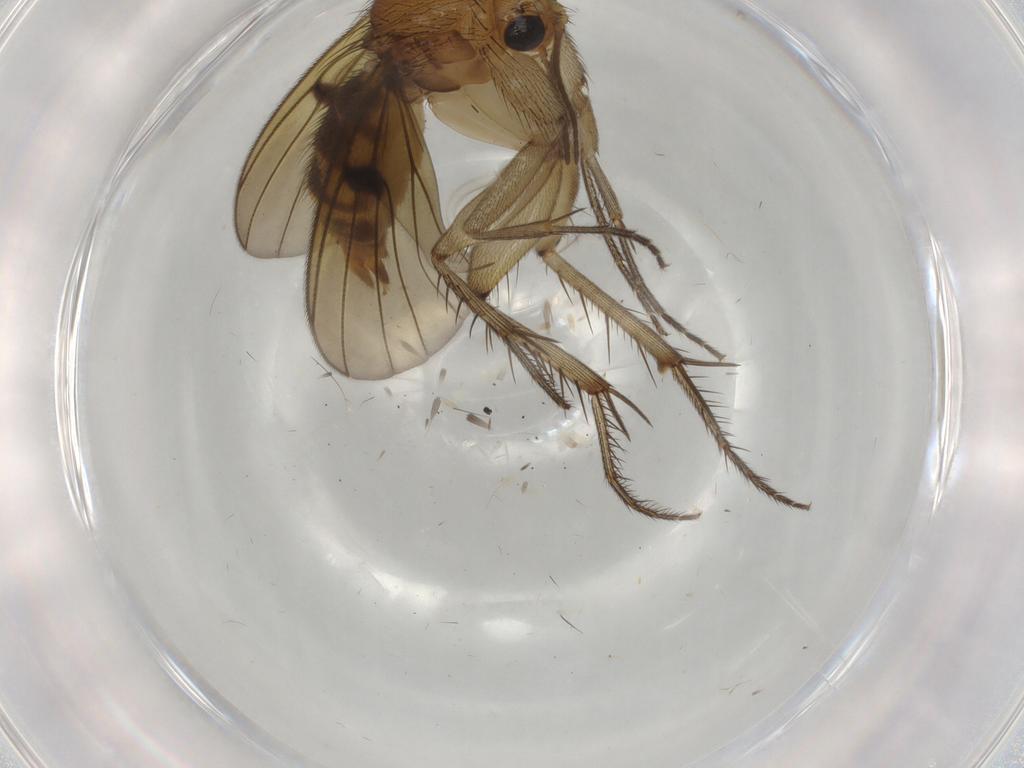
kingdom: Animalia
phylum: Arthropoda
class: Insecta
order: Diptera
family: Mycetophilidae
